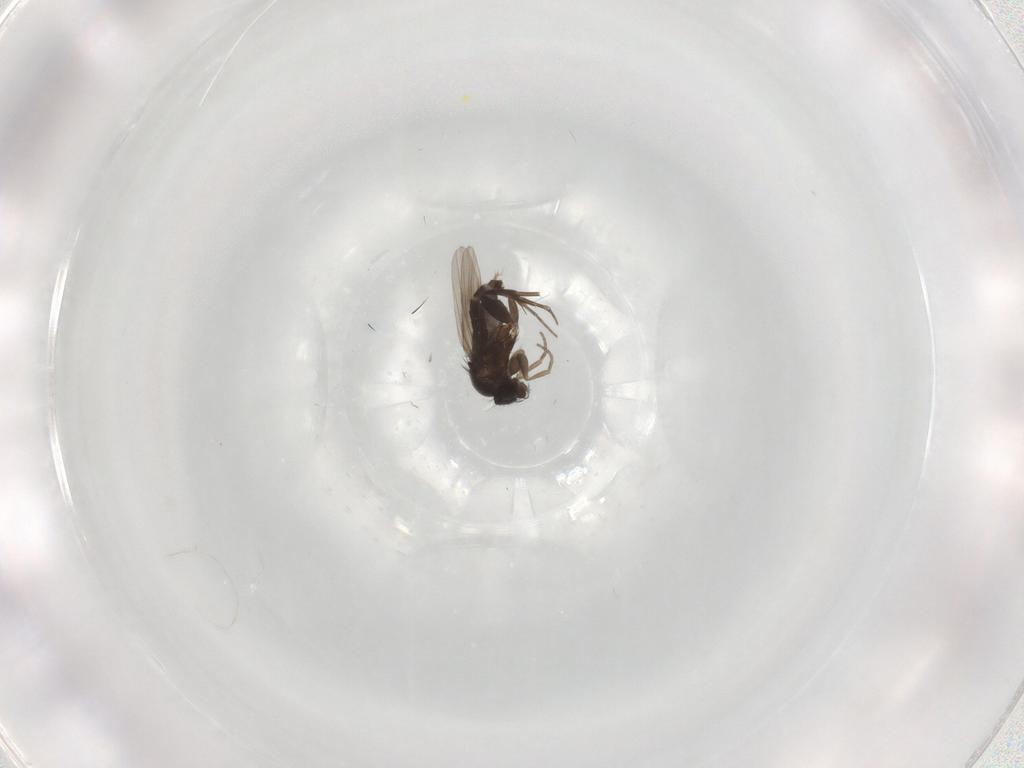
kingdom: Animalia
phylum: Arthropoda
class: Insecta
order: Diptera
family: Phoridae
